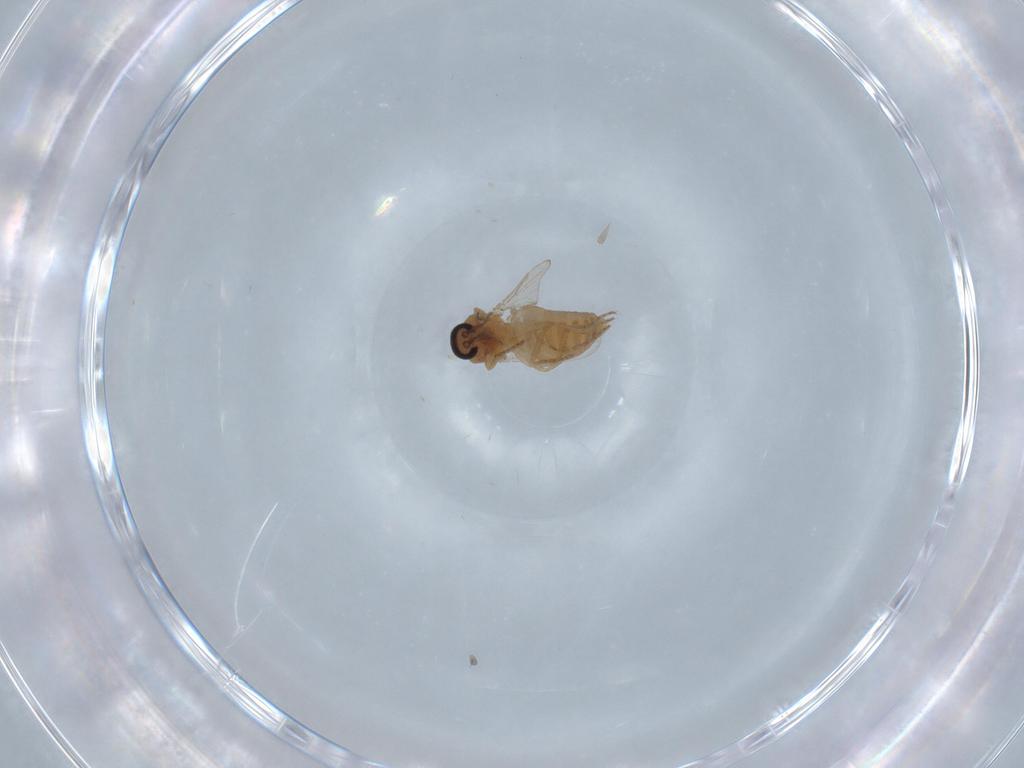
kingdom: Animalia
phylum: Arthropoda
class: Insecta
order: Diptera
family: Ceratopogonidae
